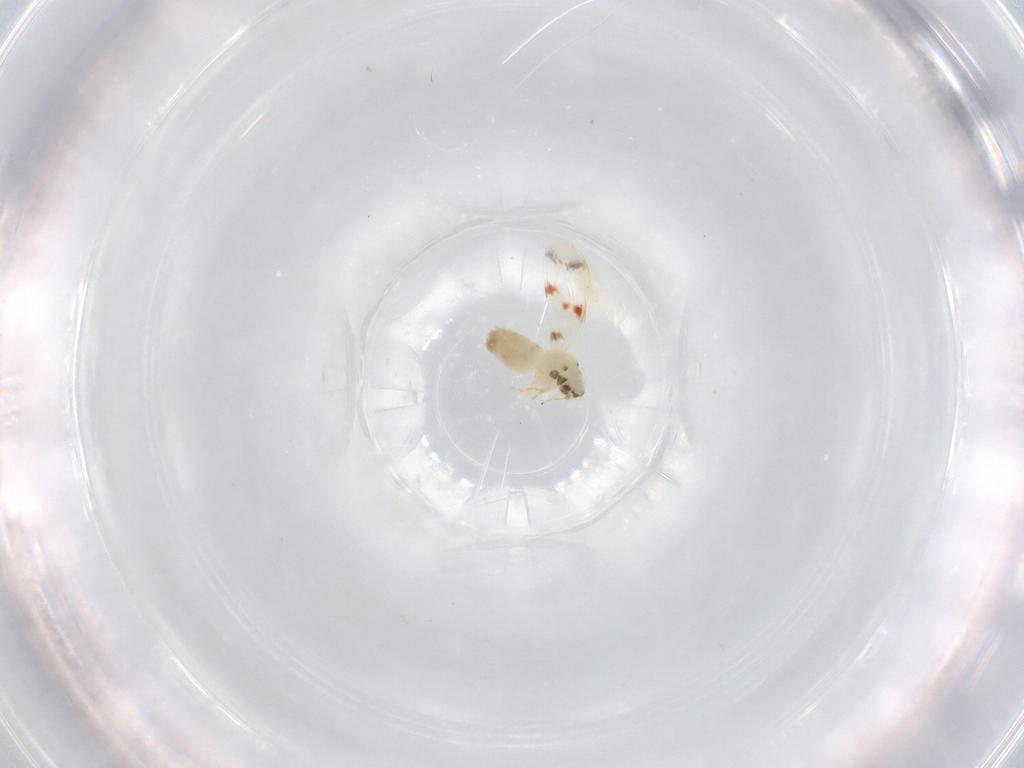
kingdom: Animalia
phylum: Arthropoda
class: Insecta
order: Hemiptera
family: Aleyrodidae
